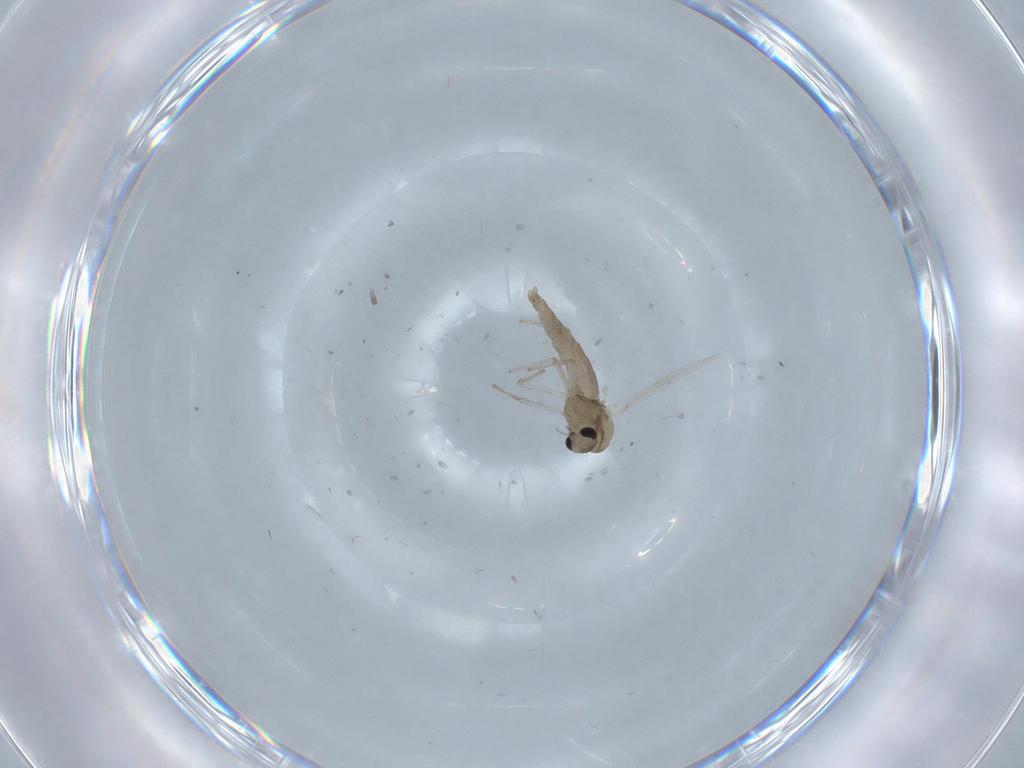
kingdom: Animalia
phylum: Arthropoda
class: Insecta
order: Diptera
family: Chironomidae
